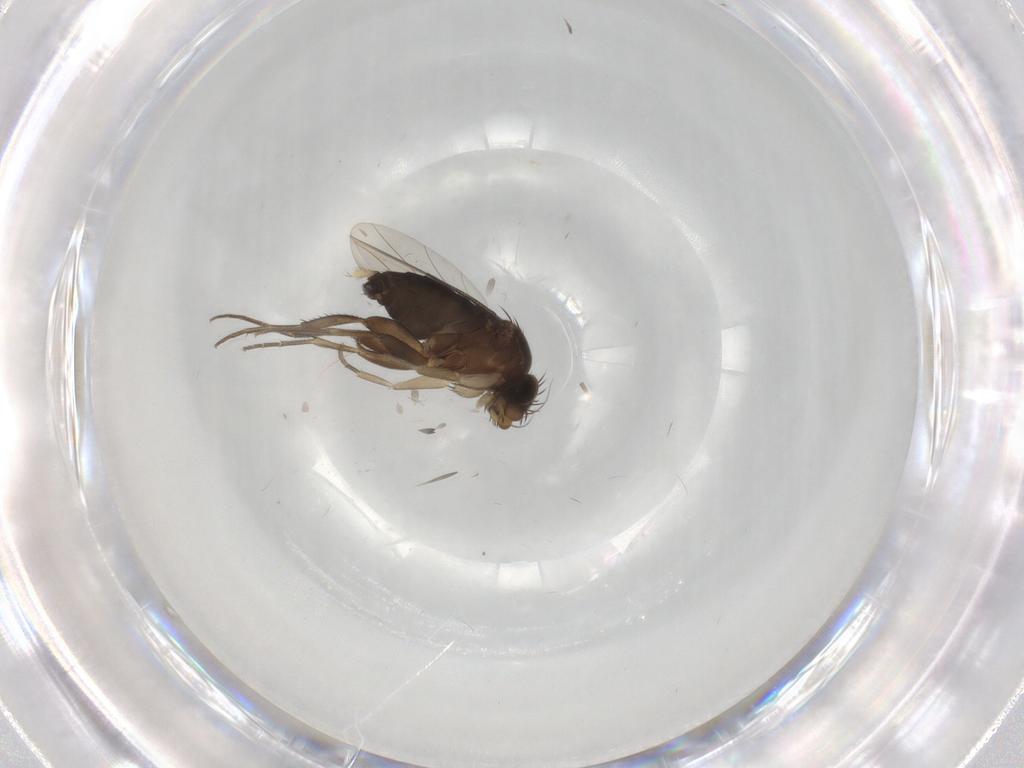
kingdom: Animalia
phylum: Arthropoda
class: Insecta
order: Diptera
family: Phoridae
